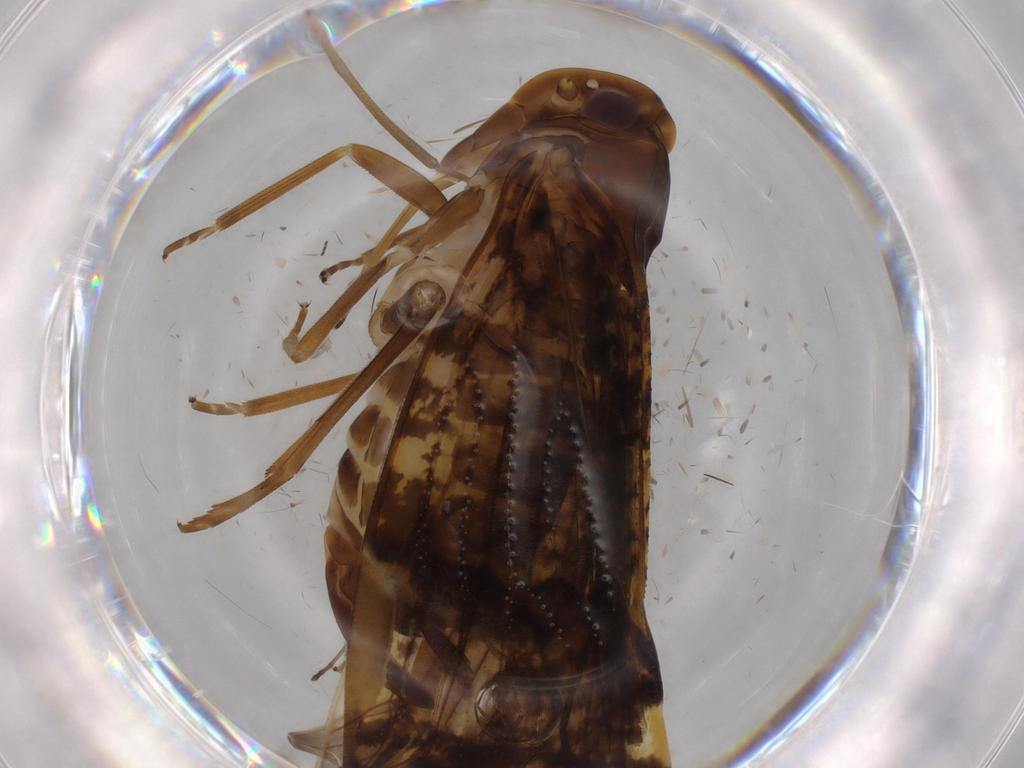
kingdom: Animalia
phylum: Arthropoda
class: Insecta
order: Hemiptera
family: Cixiidae
